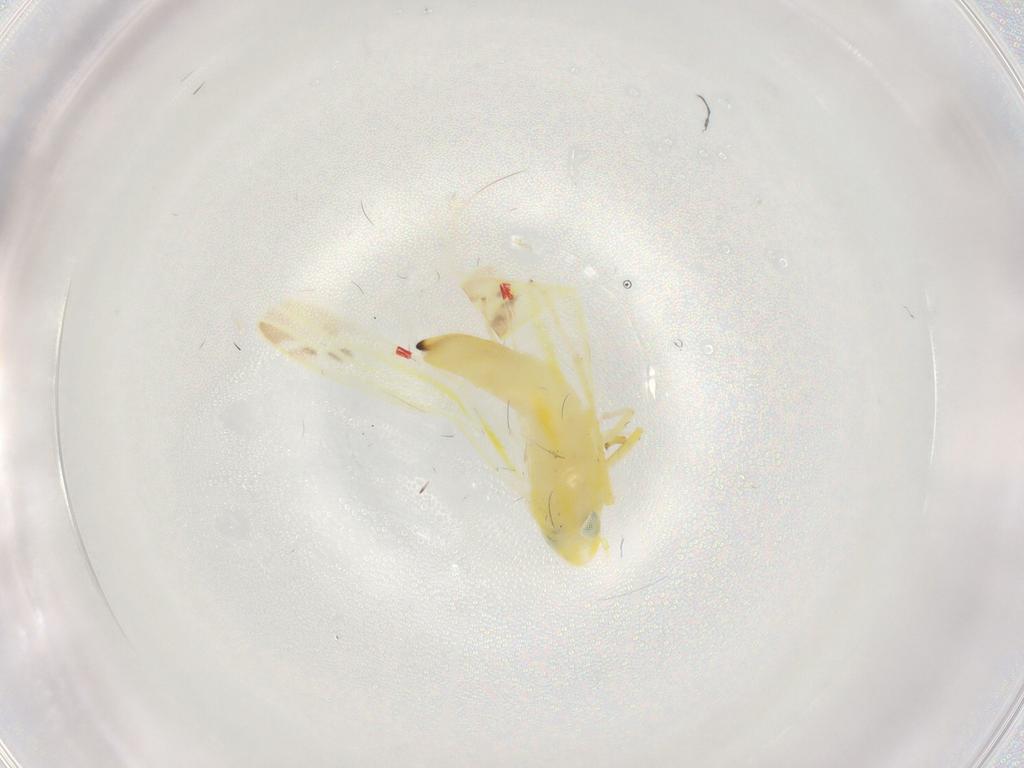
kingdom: Animalia
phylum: Arthropoda
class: Insecta
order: Hemiptera
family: Cicadellidae
